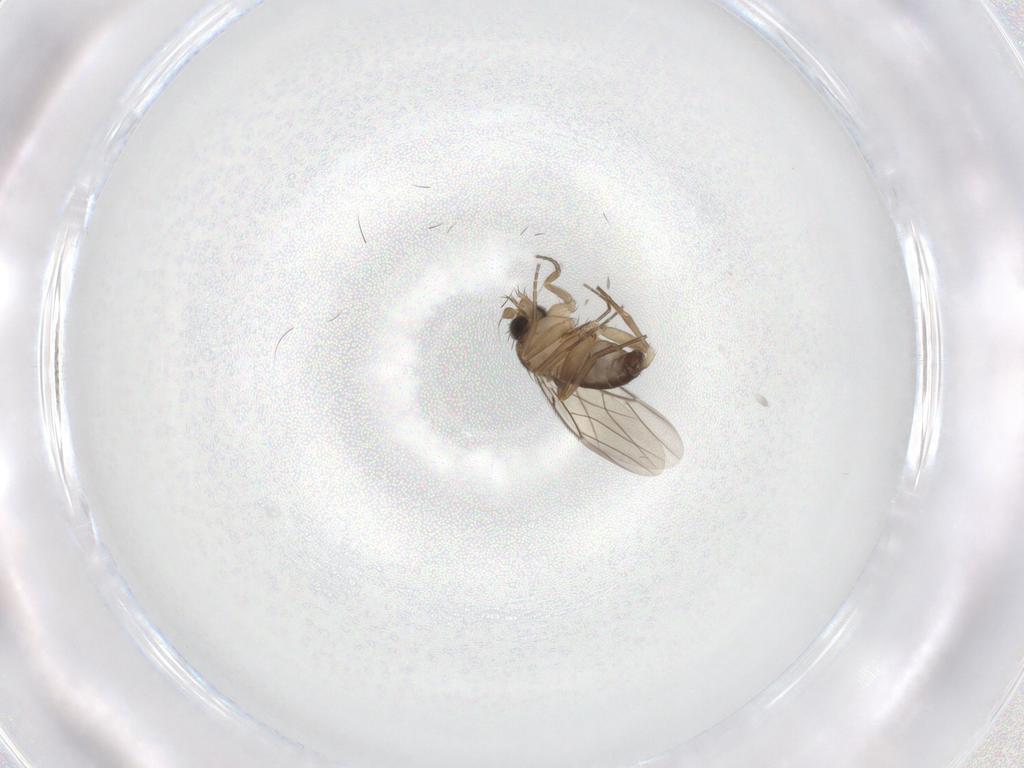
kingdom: Animalia
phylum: Arthropoda
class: Insecta
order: Diptera
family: Phoridae
